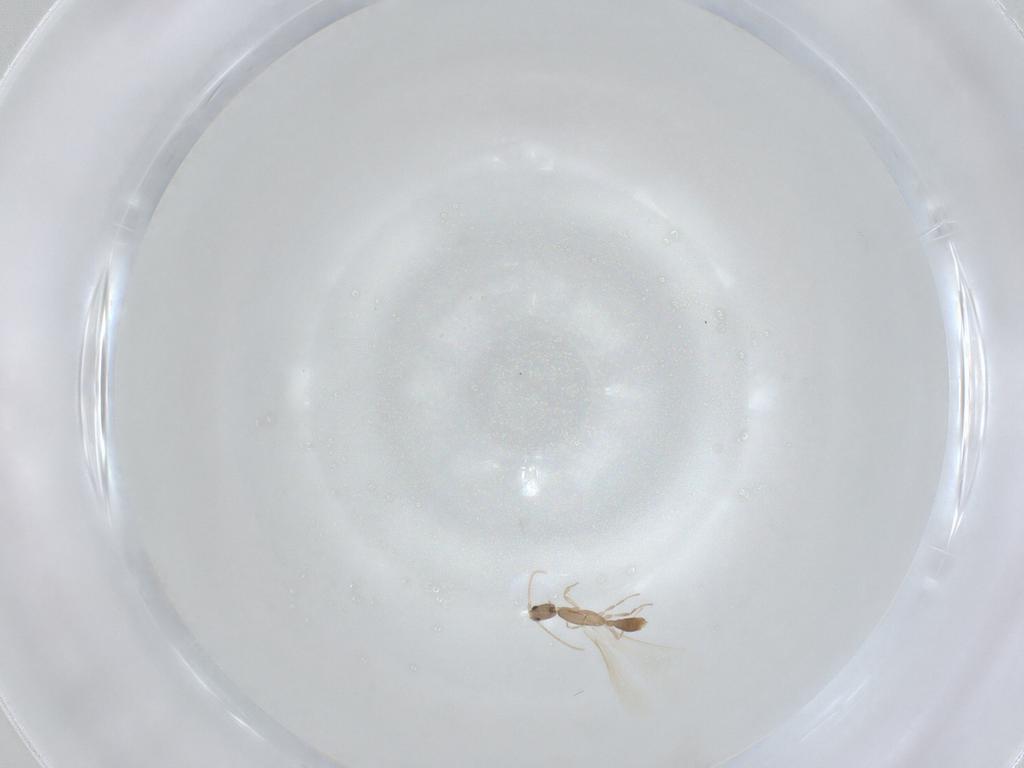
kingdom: Animalia
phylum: Arthropoda
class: Insecta
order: Hymenoptera
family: Formicidae
